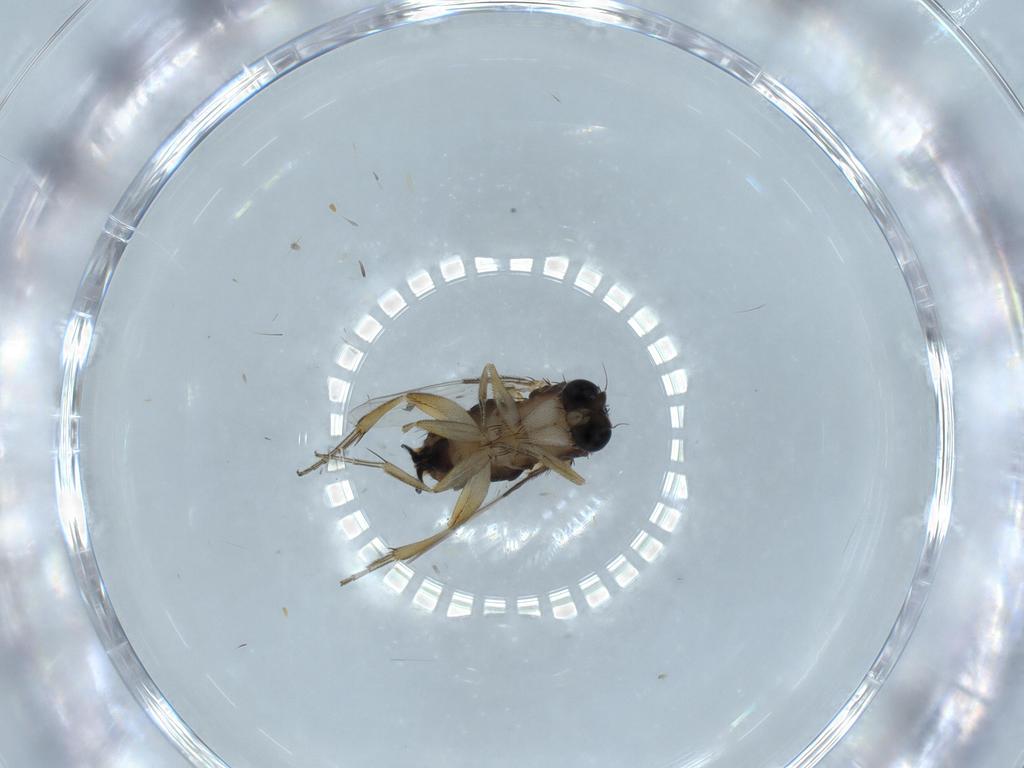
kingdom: Animalia
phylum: Arthropoda
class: Insecta
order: Diptera
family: Phoridae
